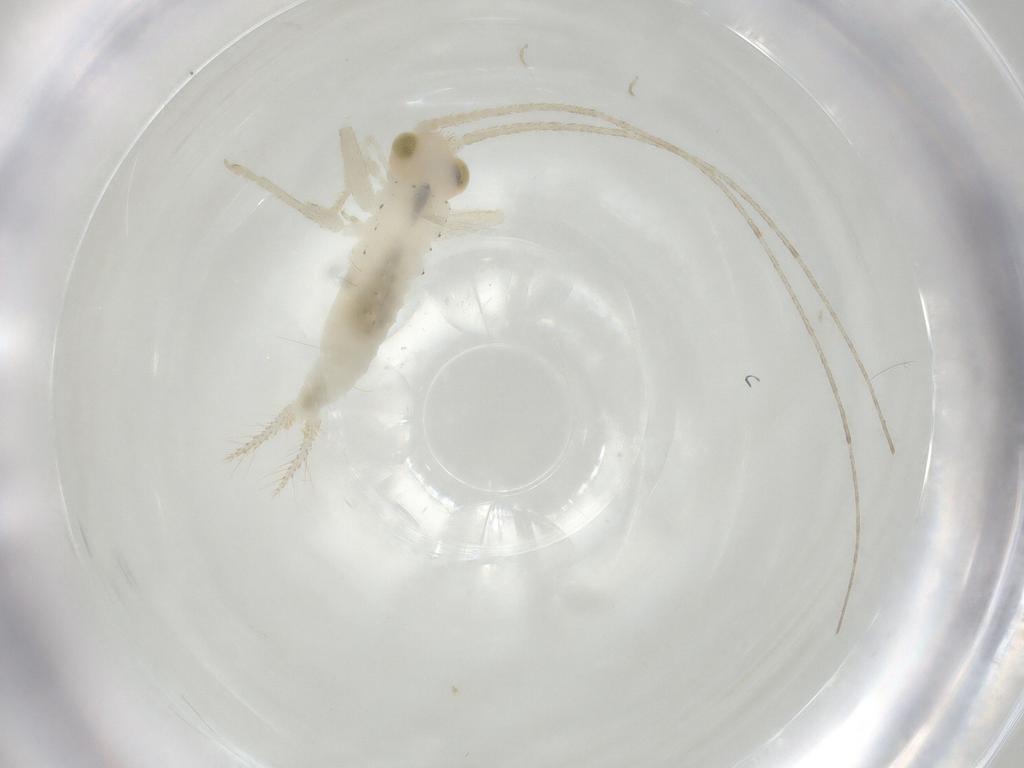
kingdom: Animalia
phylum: Arthropoda
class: Insecta
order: Orthoptera
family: Trigonidiidae
